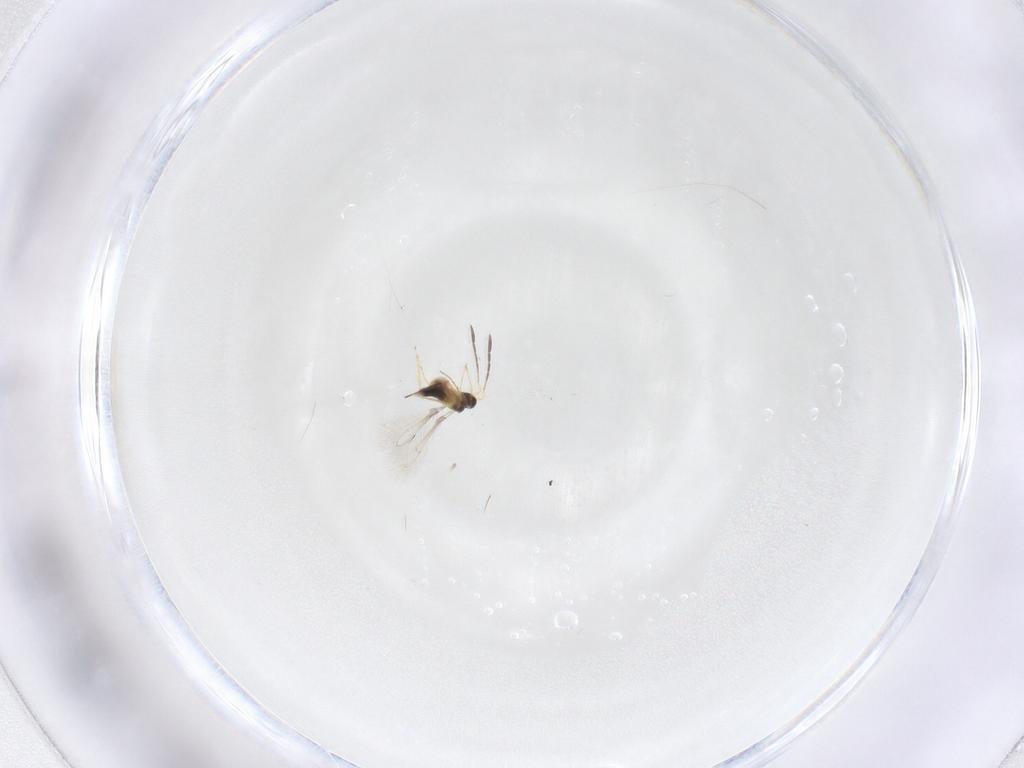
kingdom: Animalia
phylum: Arthropoda
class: Insecta
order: Hymenoptera
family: Mymaridae
